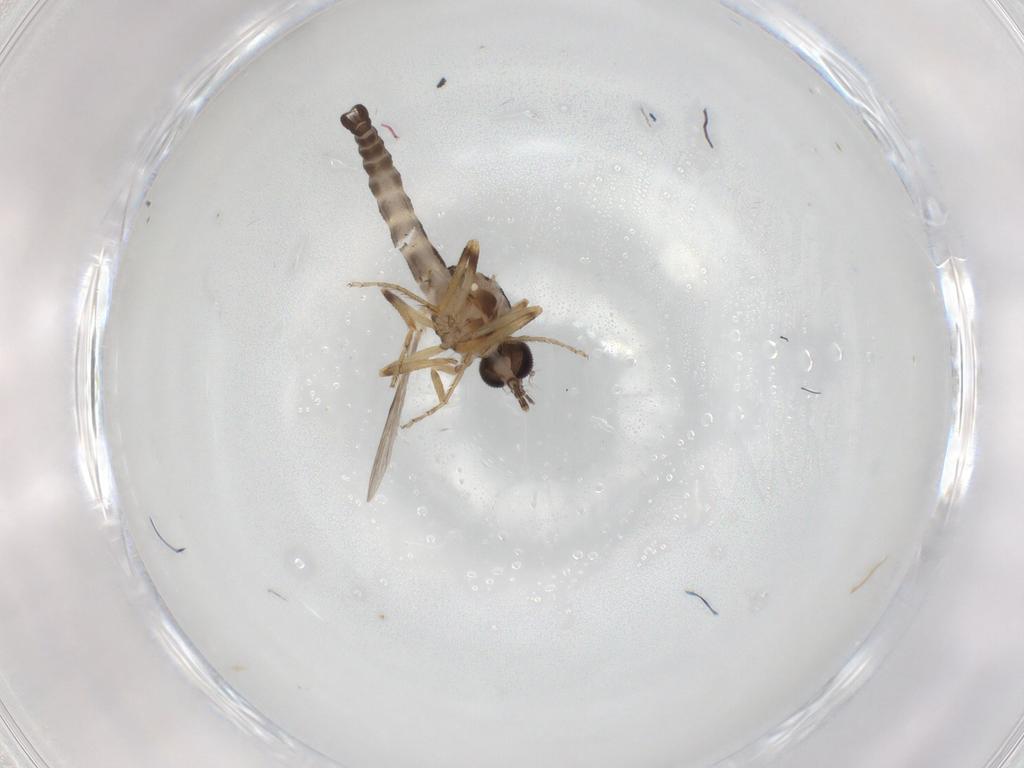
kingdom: Animalia
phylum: Arthropoda
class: Insecta
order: Diptera
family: Ceratopogonidae
